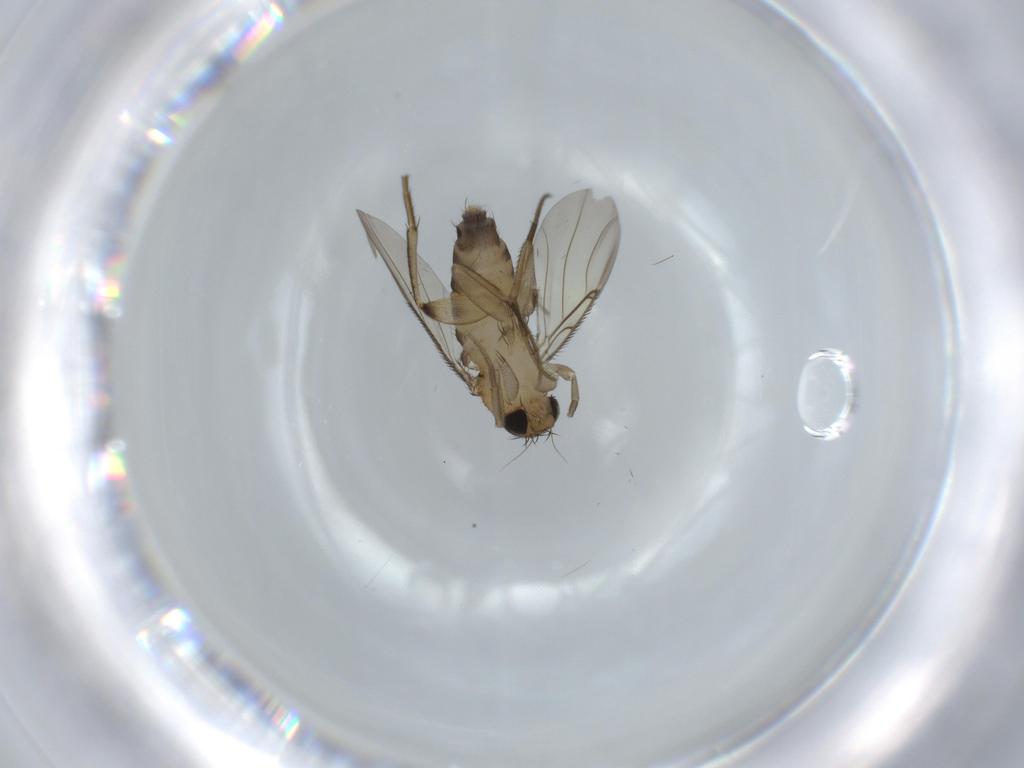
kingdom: Animalia
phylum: Arthropoda
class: Insecta
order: Diptera
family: Phoridae
